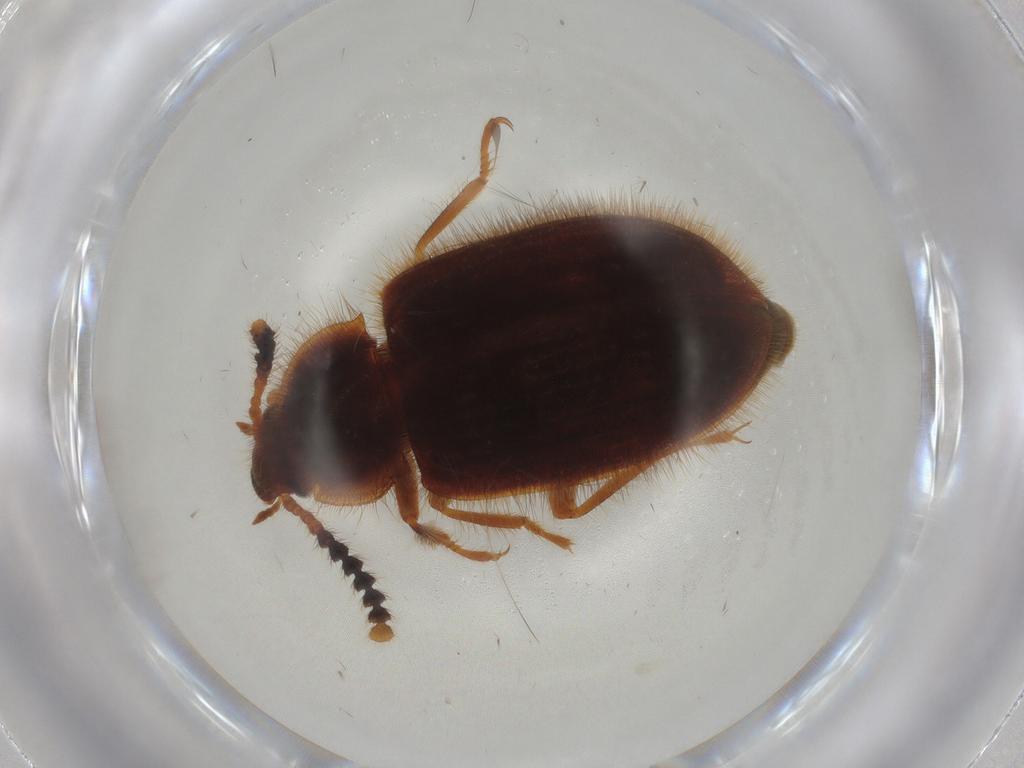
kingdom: Animalia
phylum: Arthropoda
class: Insecta
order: Coleoptera
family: Tenebrionidae
